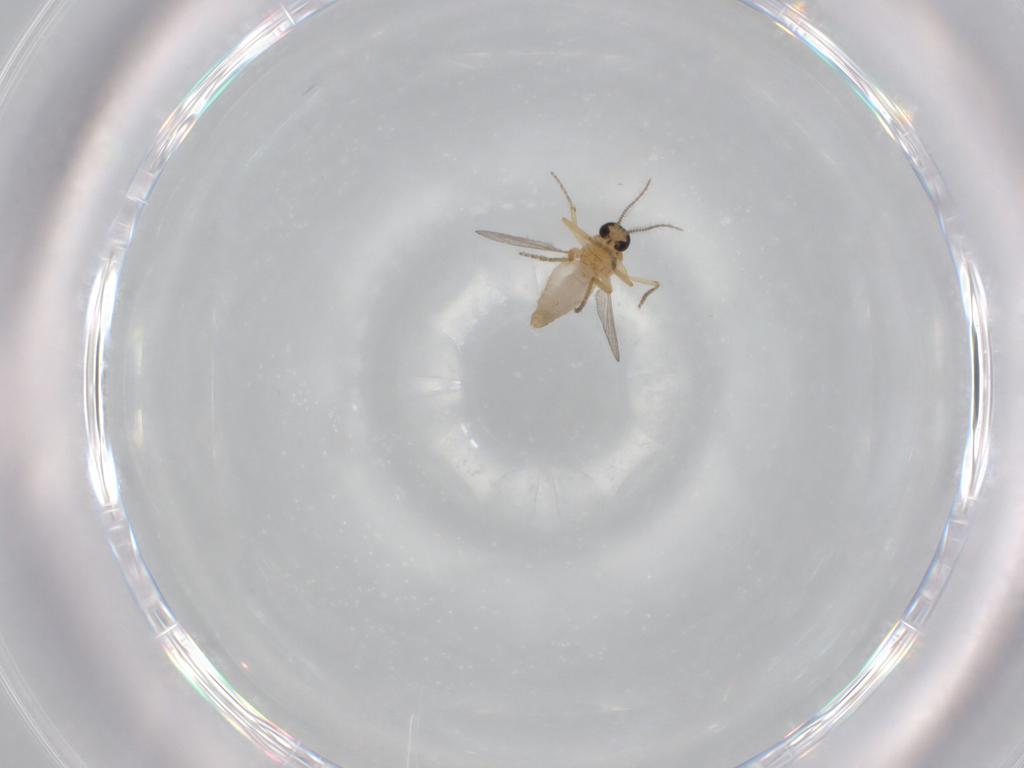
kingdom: Animalia
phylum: Arthropoda
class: Insecta
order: Diptera
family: Ceratopogonidae
